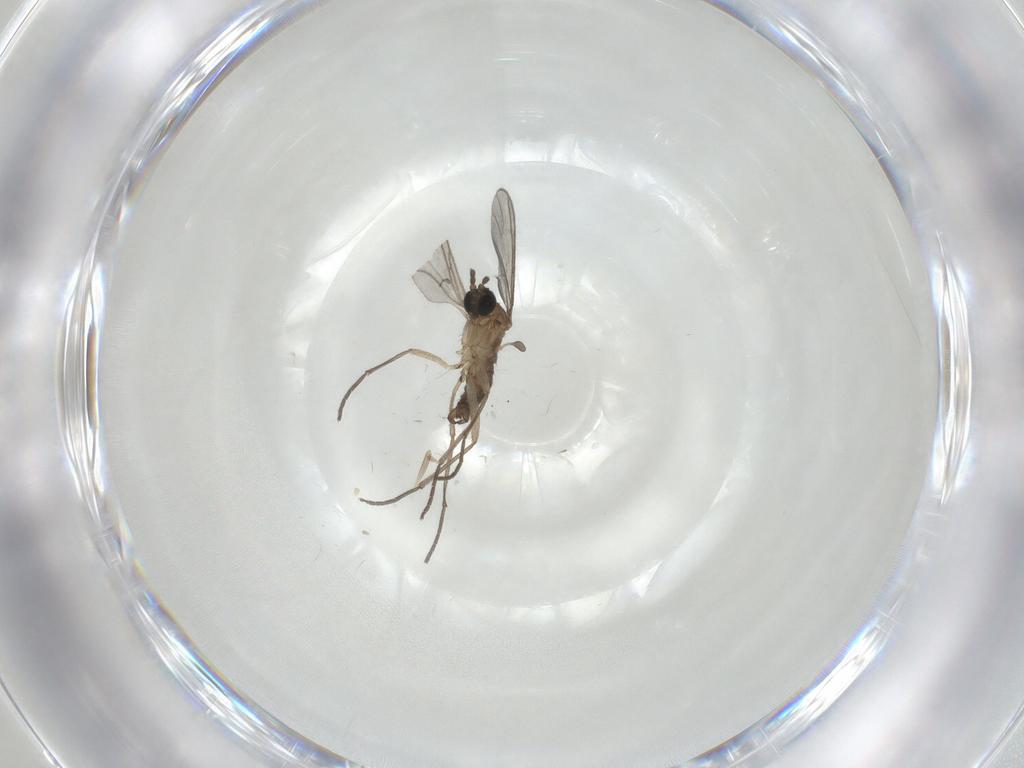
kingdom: Animalia
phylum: Arthropoda
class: Insecta
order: Diptera
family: Sciaridae
